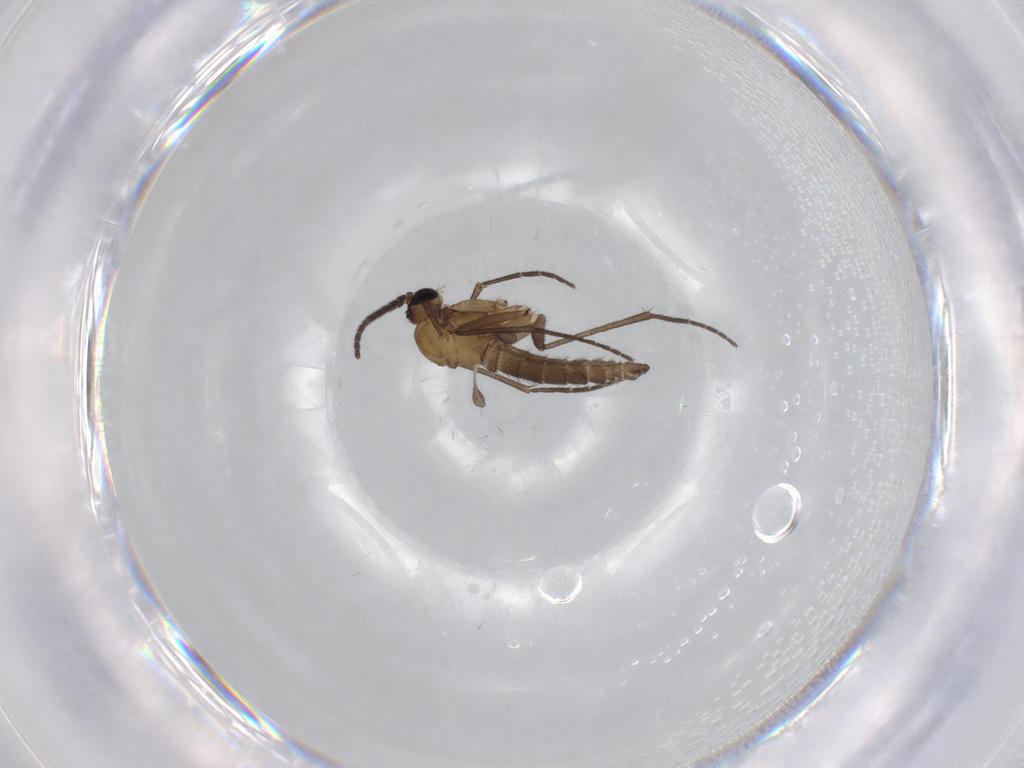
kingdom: Animalia
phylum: Arthropoda
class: Insecta
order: Diptera
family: Sciaridae
